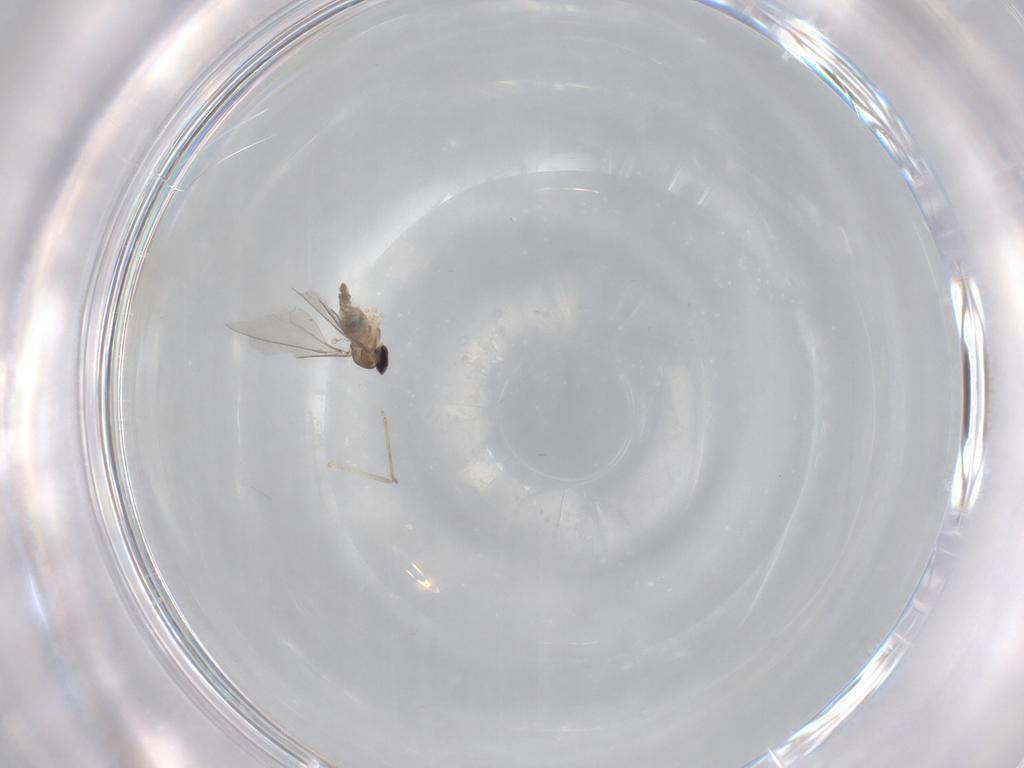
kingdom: Animalia
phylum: Arthropoda
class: Insecta
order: Diptera
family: Cecidomyiidae
